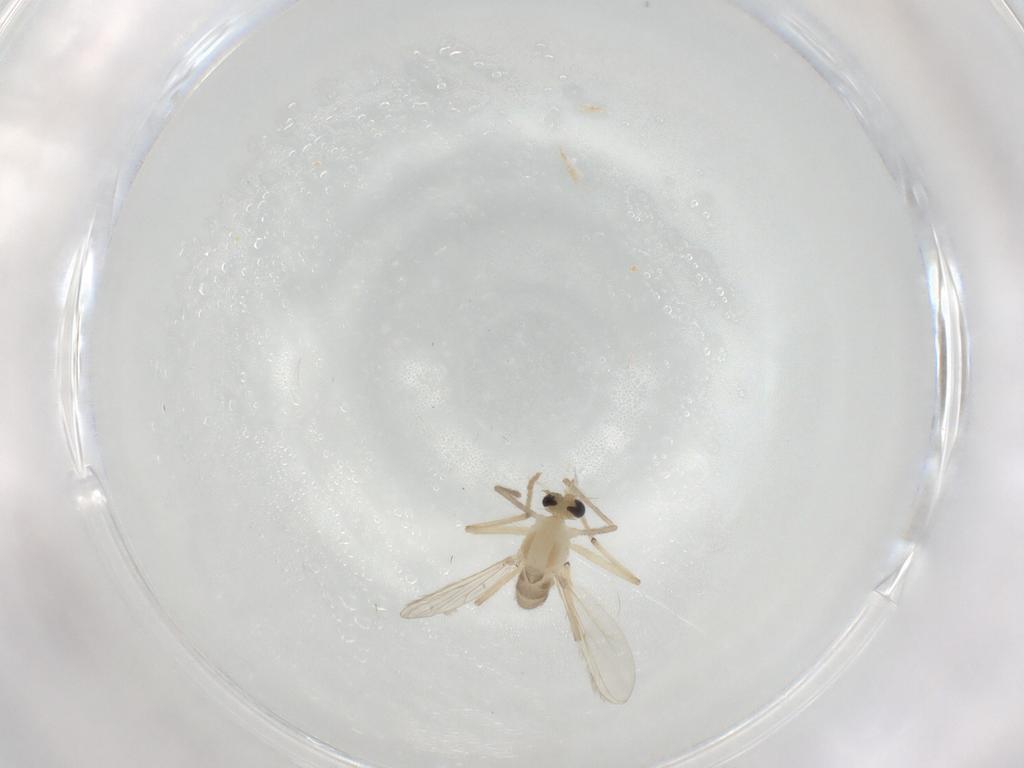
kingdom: Animalia
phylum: Arthropoda
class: Insecta
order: Diptera
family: Chironomidae
